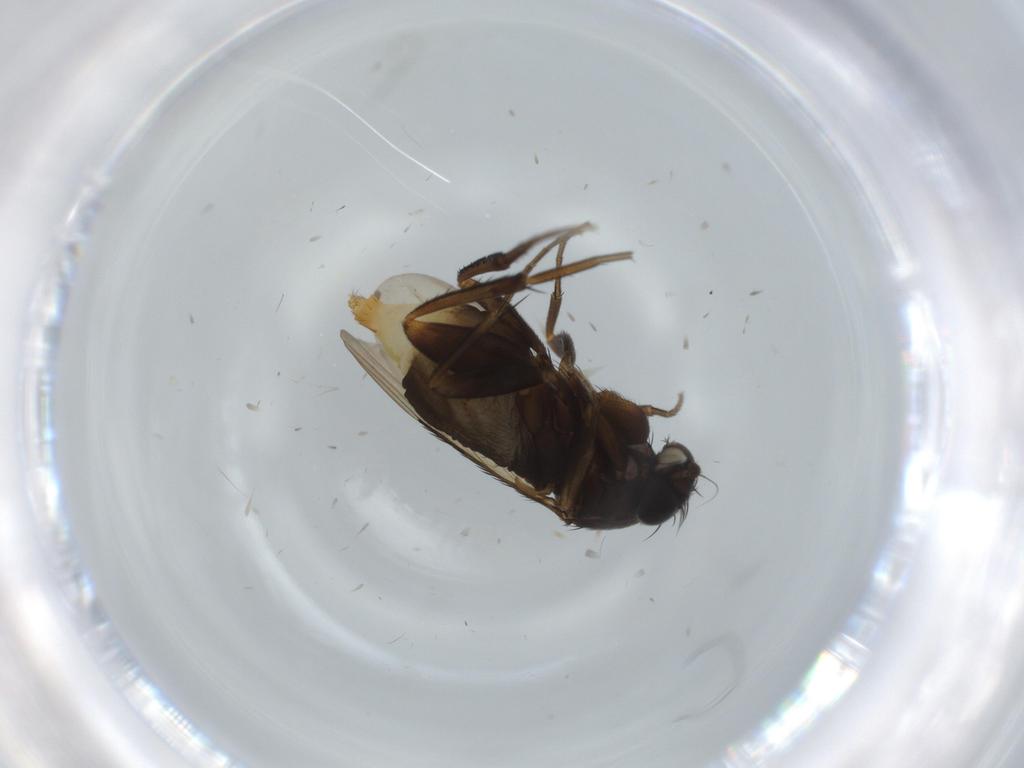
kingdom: Animalia
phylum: Arthropoda
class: Insecta
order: Diptera
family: Phoridae
